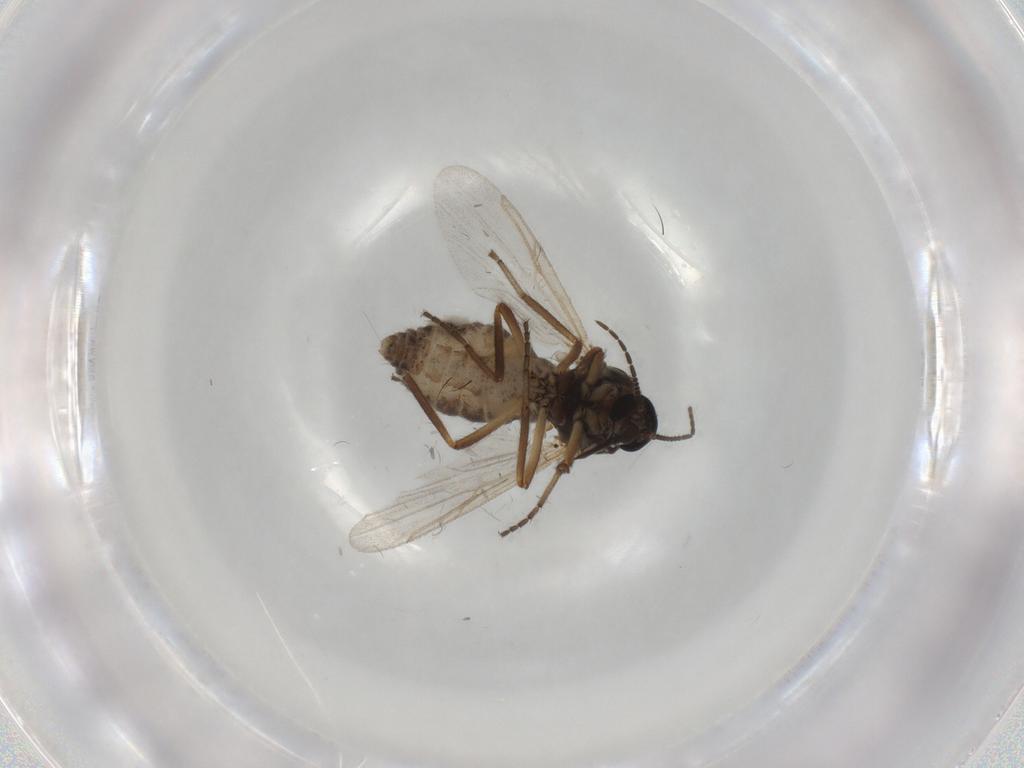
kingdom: Animalia
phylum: Arthropoda
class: Insecta
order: Diptera
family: Ceratopogonidae
